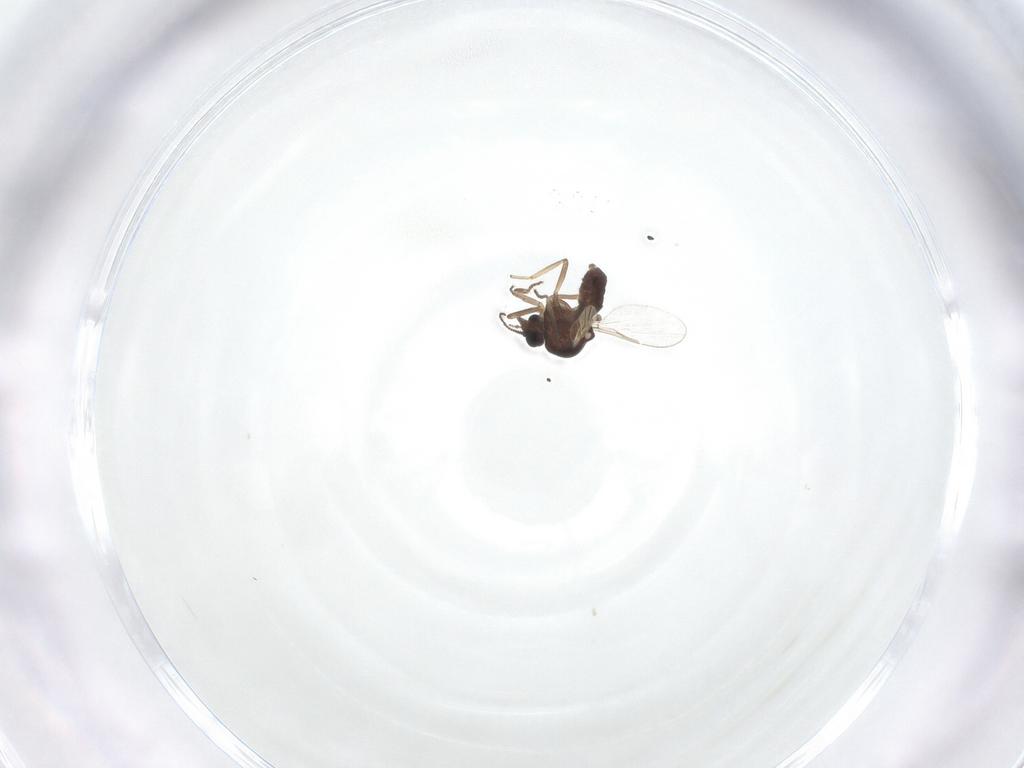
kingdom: Animalia
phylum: Arthropoda
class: Insecta
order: Diptera
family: Ceratopogonidae
